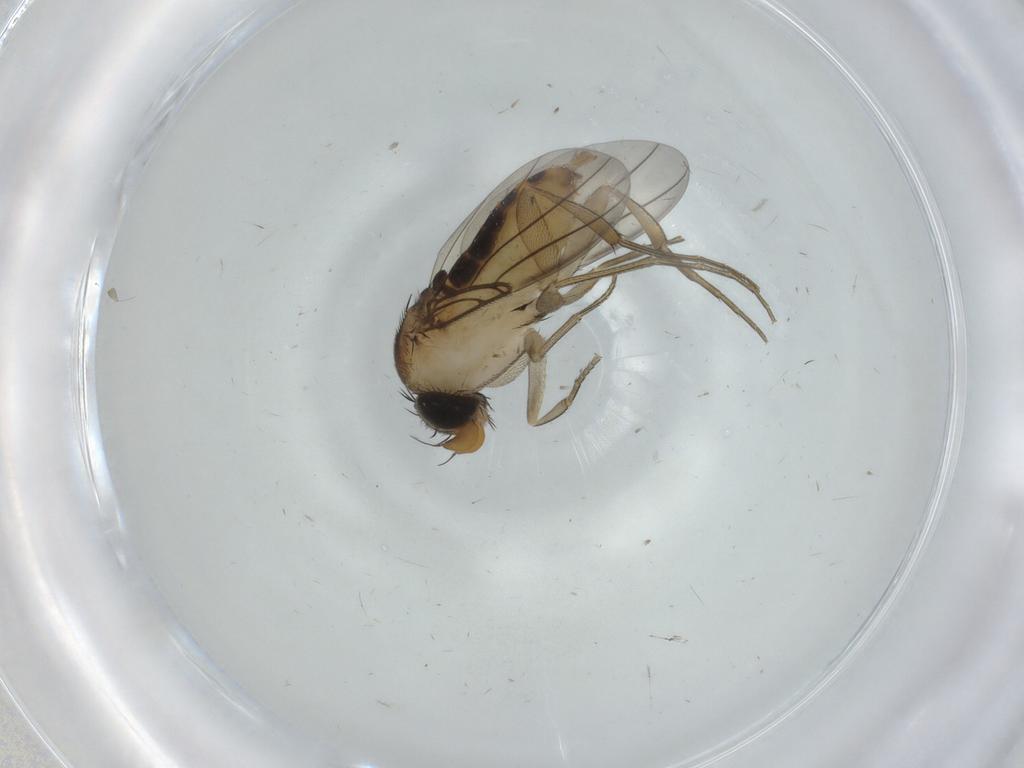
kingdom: Animalia
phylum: Arthropoda
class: Insecta
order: Diptera
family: Phoridae
